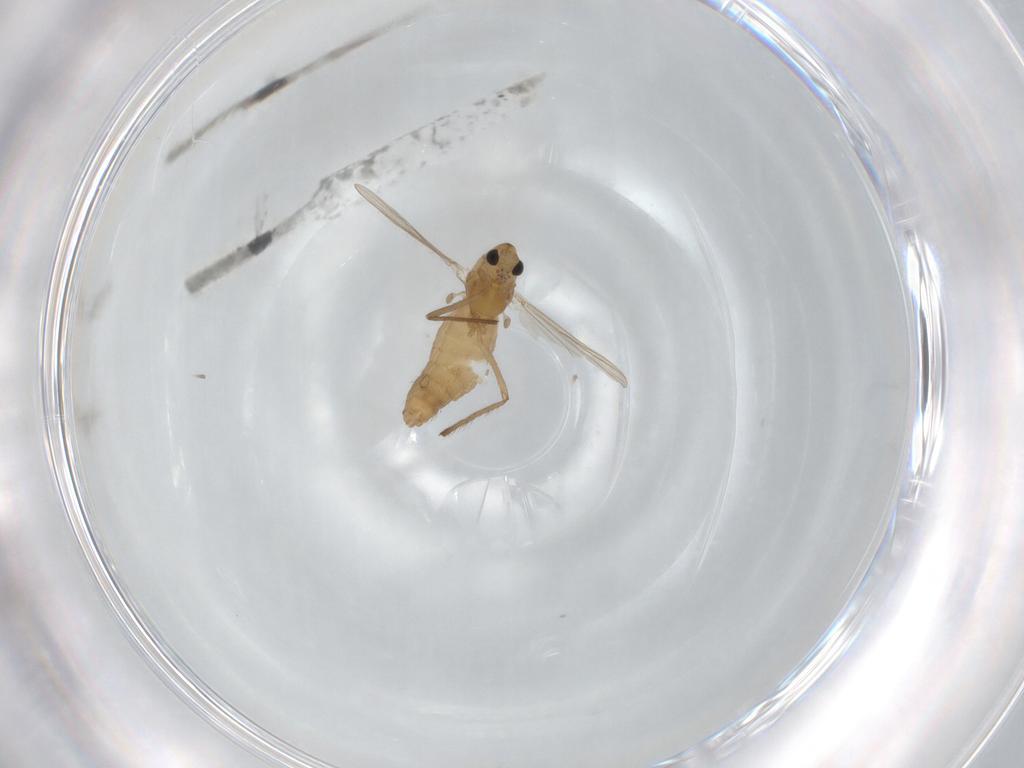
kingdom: Animalia
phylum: Arthropoda
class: Insecta
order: Diptera
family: Chironomidae
